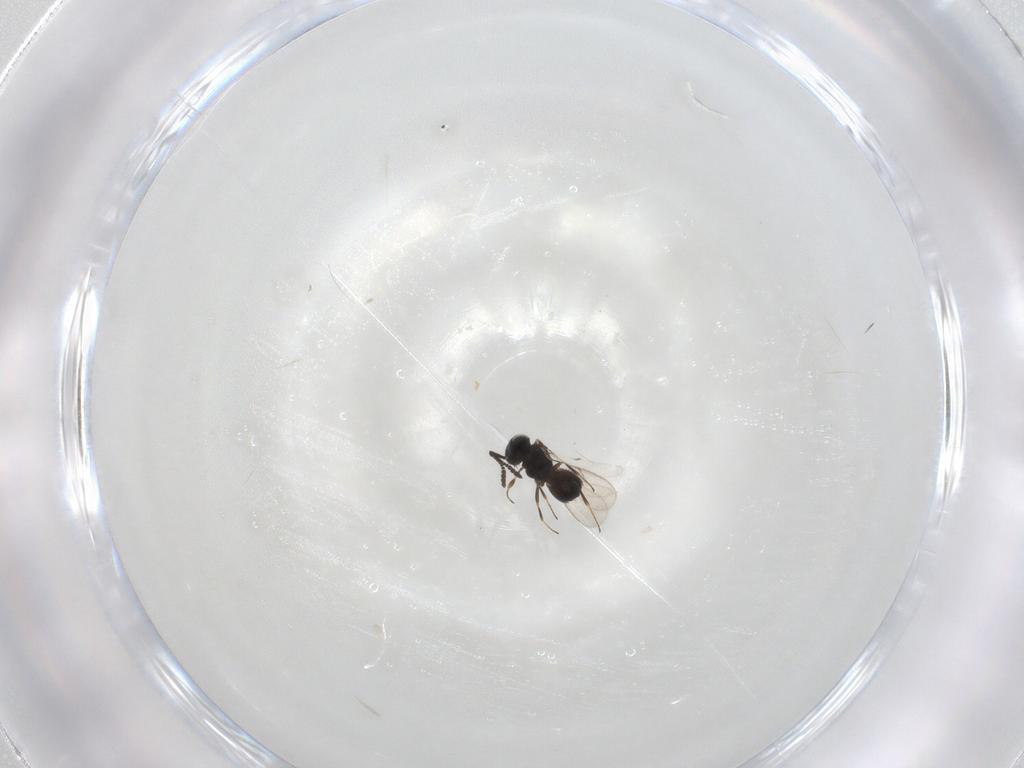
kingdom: Animalia
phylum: Arthropoda
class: Insecta
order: Hymenoptera
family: Scelionidae
